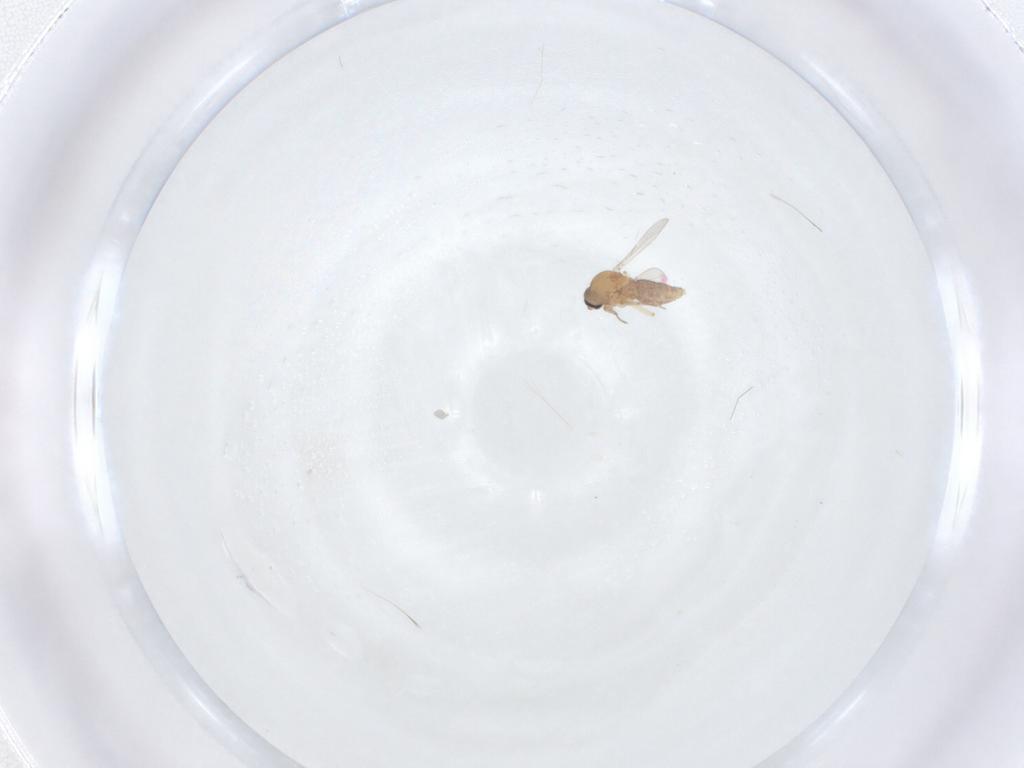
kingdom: Animalia
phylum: Arthropoda
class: Insecta
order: Diptera
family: Ceratopogonidae
